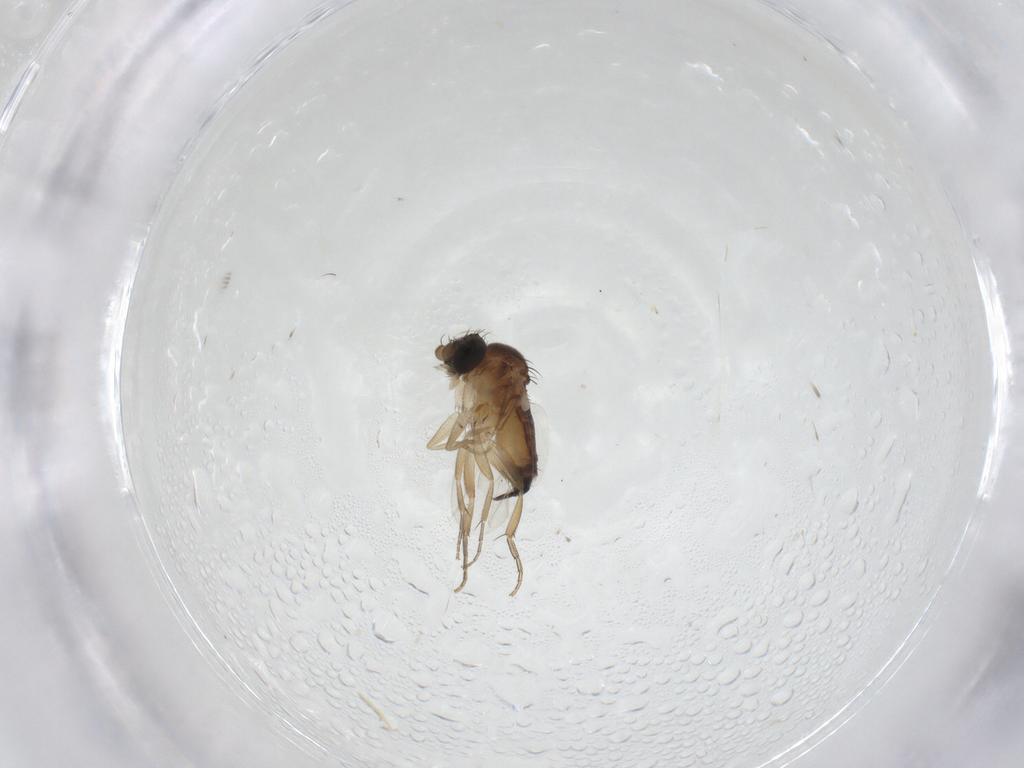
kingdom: Animalia
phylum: Arthropoda
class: Insecta
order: Diptera
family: Phoridae
